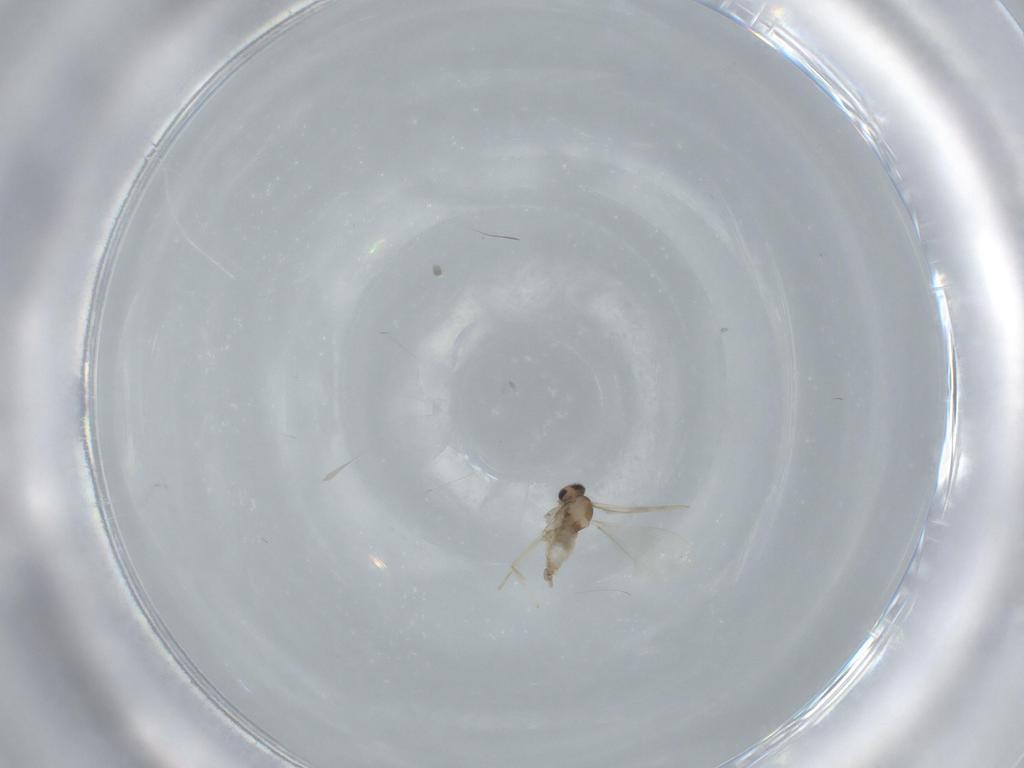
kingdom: Animalia
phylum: Arthropoda
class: Insecta
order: Diptera
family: Cecidomyiidae
